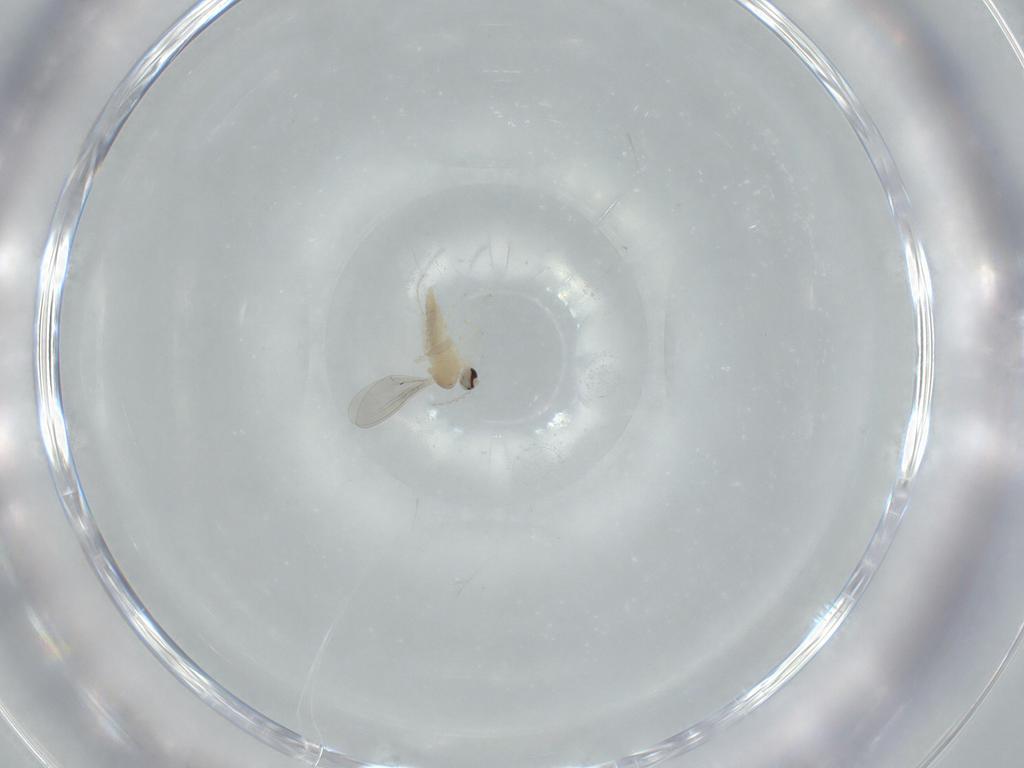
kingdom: Animalia
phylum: Arthropoda
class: Insecta
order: Diptera
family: Cecidomyiidae
